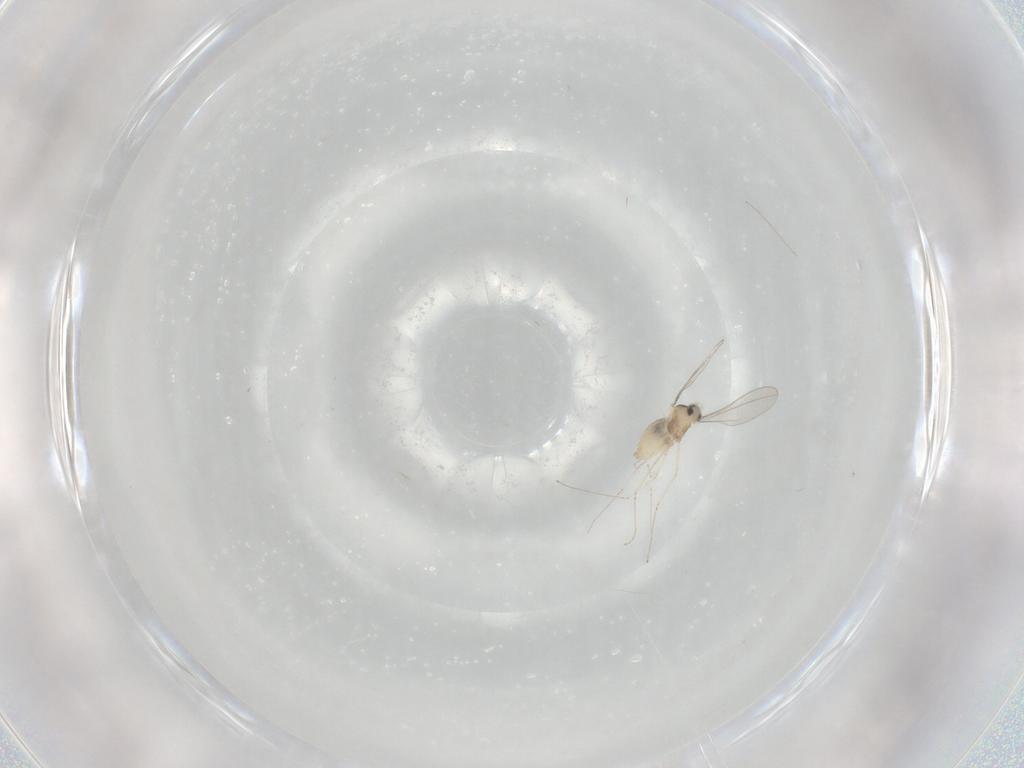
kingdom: Animalia
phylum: Arthropoda
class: Insecta
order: Diptera
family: Cecidomyiidae
